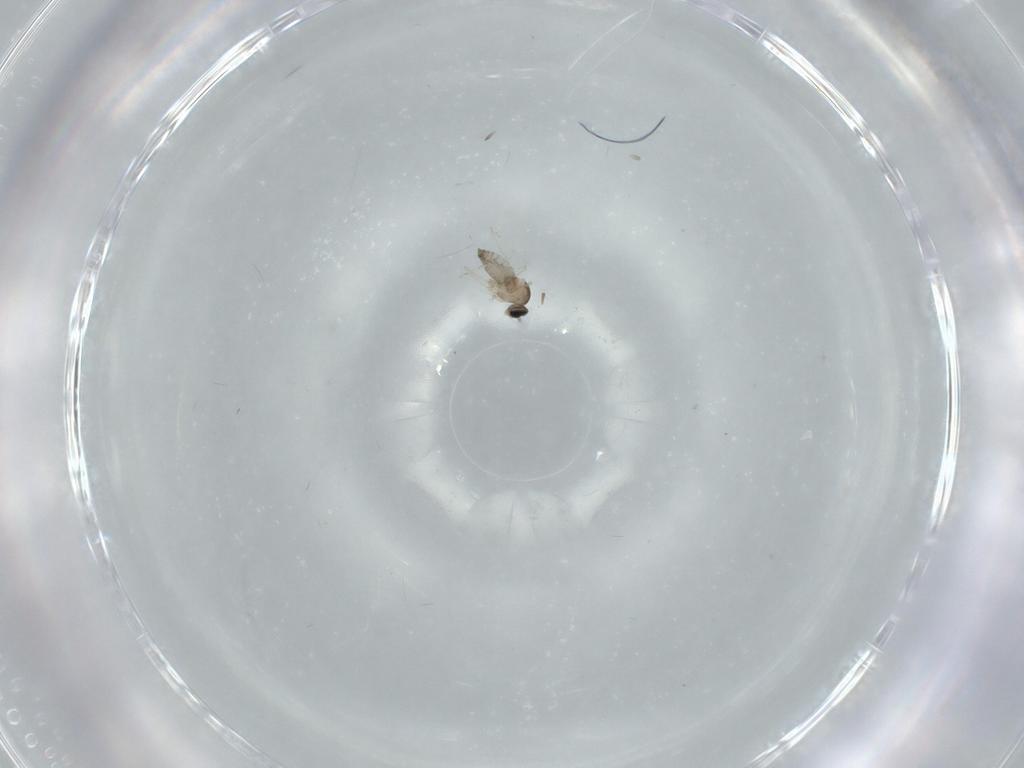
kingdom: Animalia
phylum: Arthropoda
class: Insecta
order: Diptera
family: Cecidomyiidae
